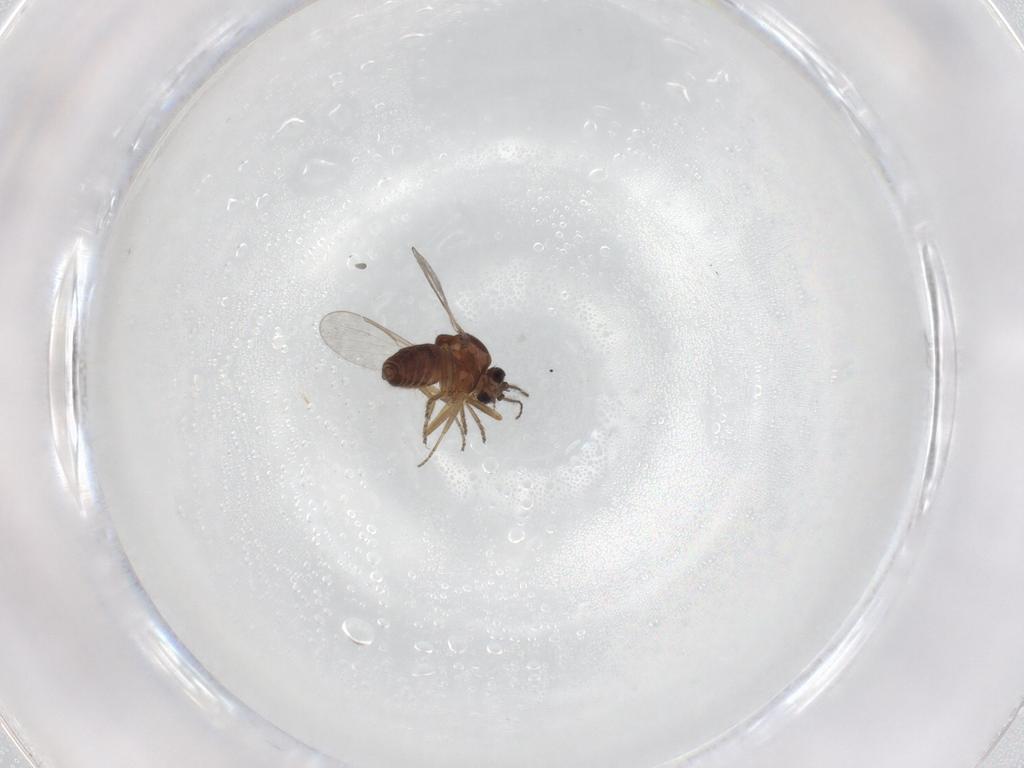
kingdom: Animalia
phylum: Arthropoda
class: Insecta
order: Diptera
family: Ceratopogonidae
